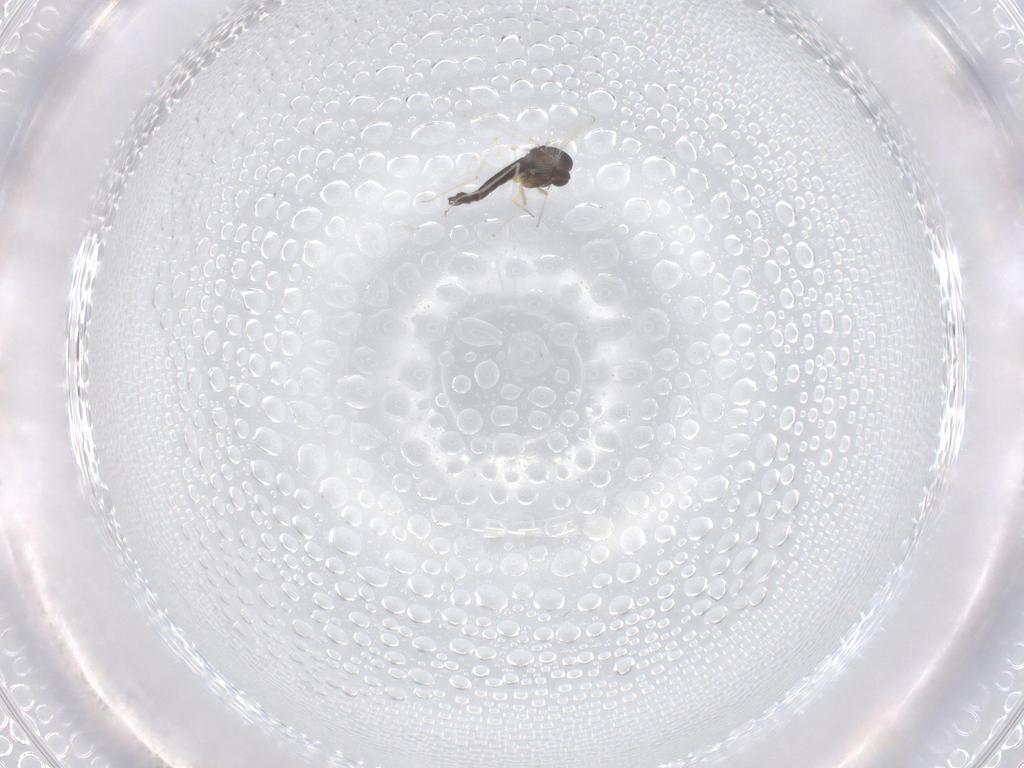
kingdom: Animalia
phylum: Arthropoda
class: Insecta
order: Diptera
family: Chironomidae
